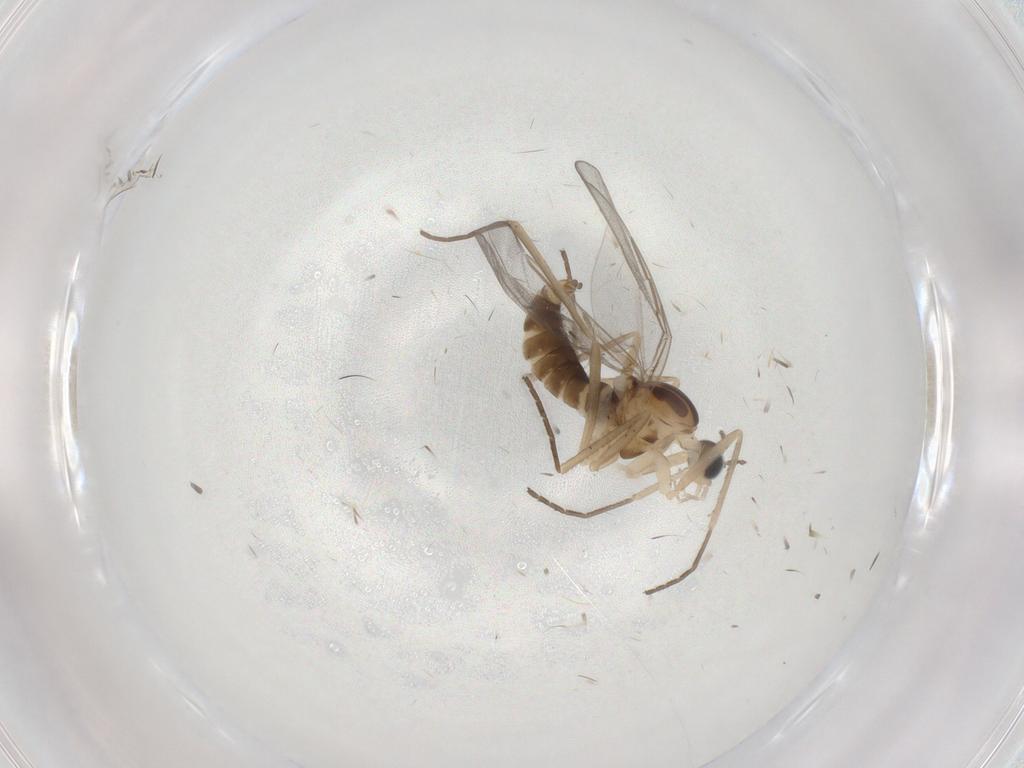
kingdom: Animalia
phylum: Arthropoda
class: Insecta
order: Diptera
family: Cecidomyiidae
